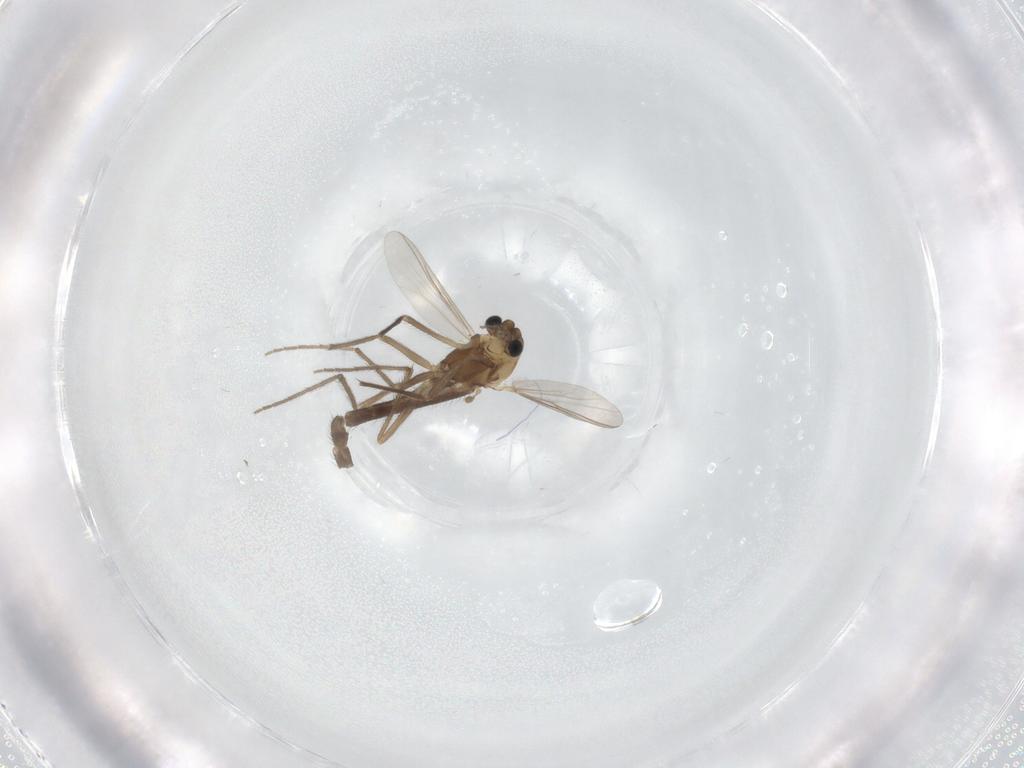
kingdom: Animalia
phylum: Arthropoda
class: Insecta
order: Diptera
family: Chironomidae
